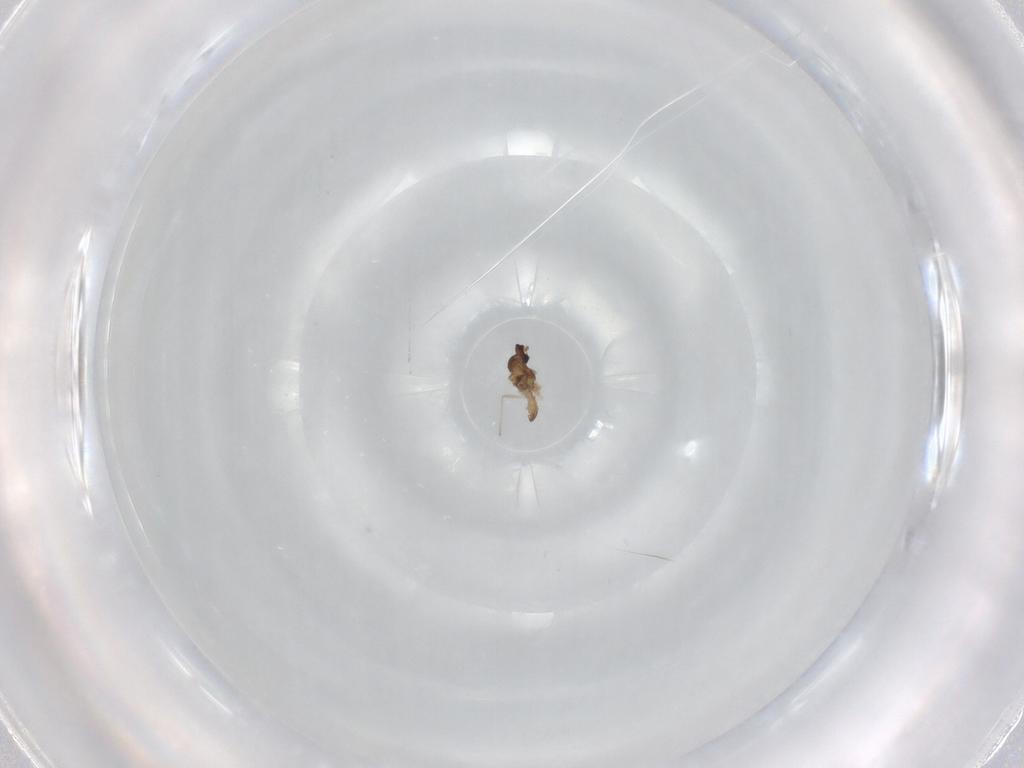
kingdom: Animalia
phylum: Arthropoda
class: Insecta
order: Diptera
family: Cecidomyiidae
